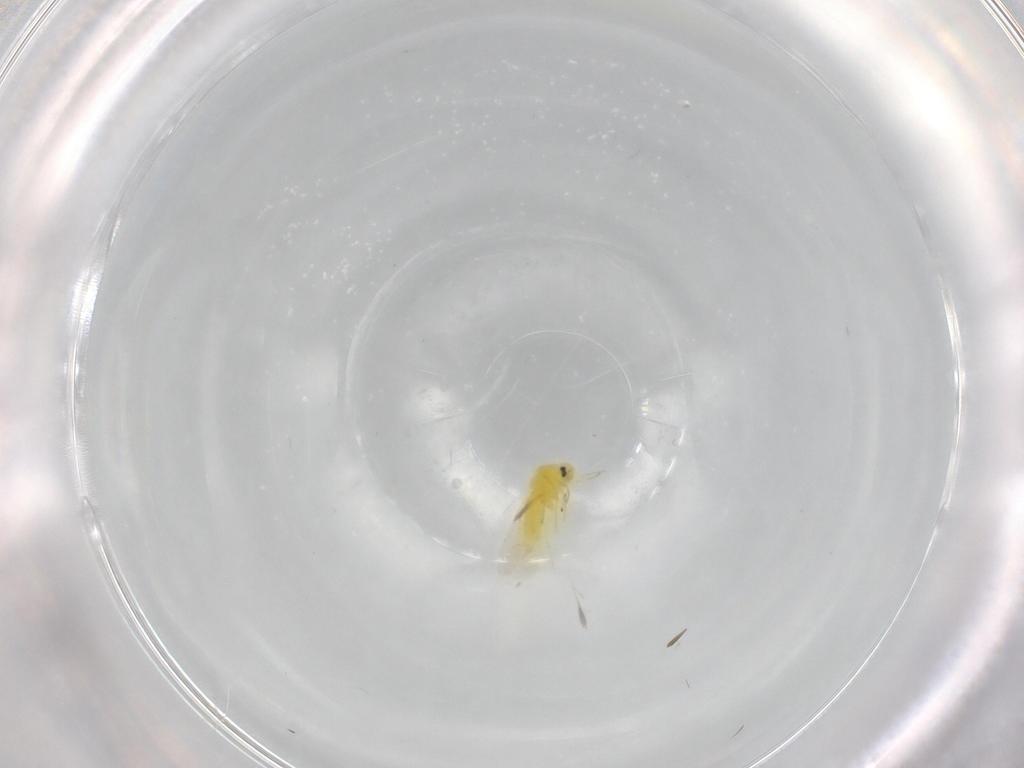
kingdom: Animalia
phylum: Arthropoda
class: Insecta
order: Hemiptera
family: Aleyrodidae
